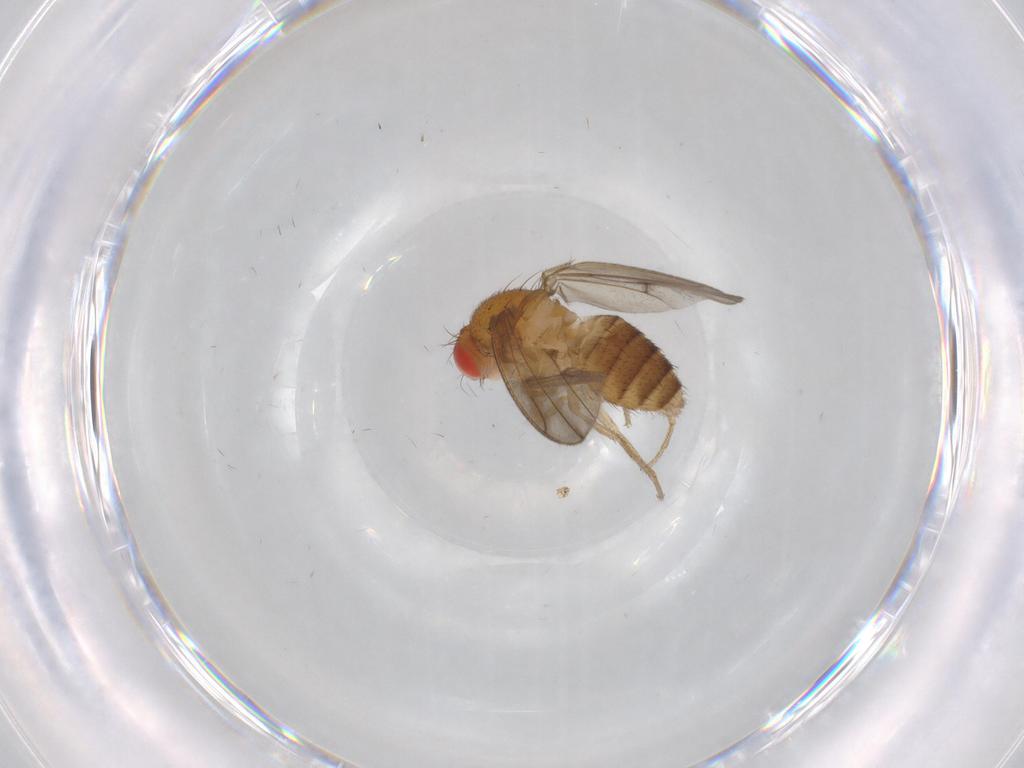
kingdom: Animalia
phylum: Arthropoda
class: Insecta
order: Diptera
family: Drosophilidae
